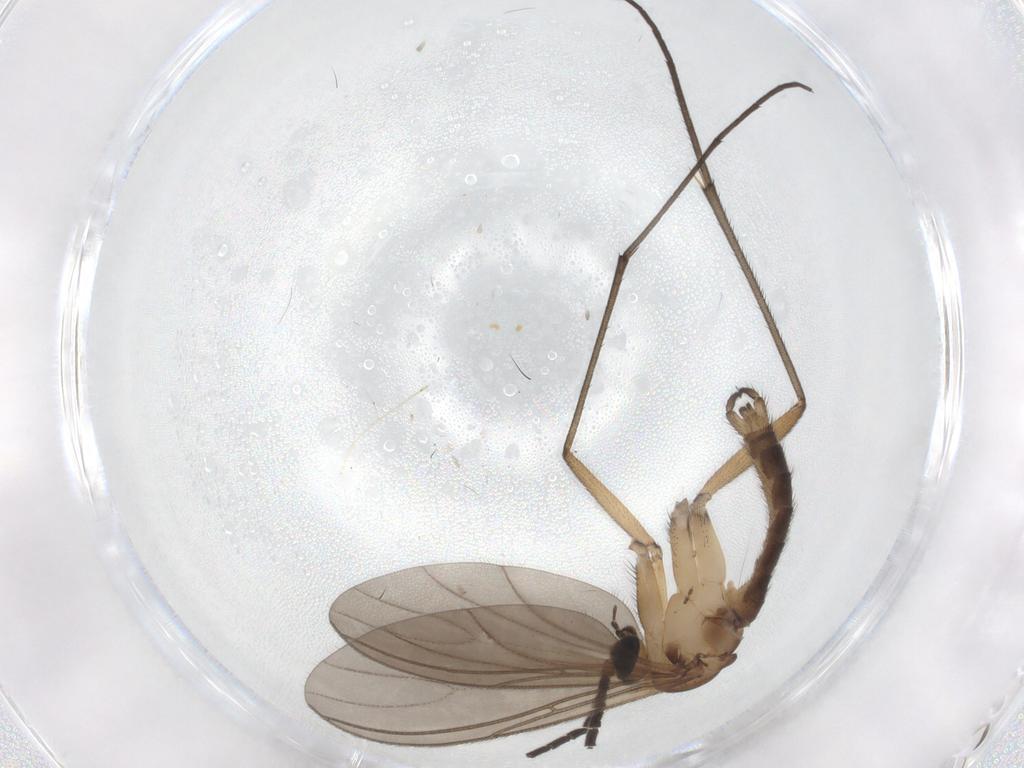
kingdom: Animalia
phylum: Arthropoda
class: Insecta
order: Diptera
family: Sciaridae
